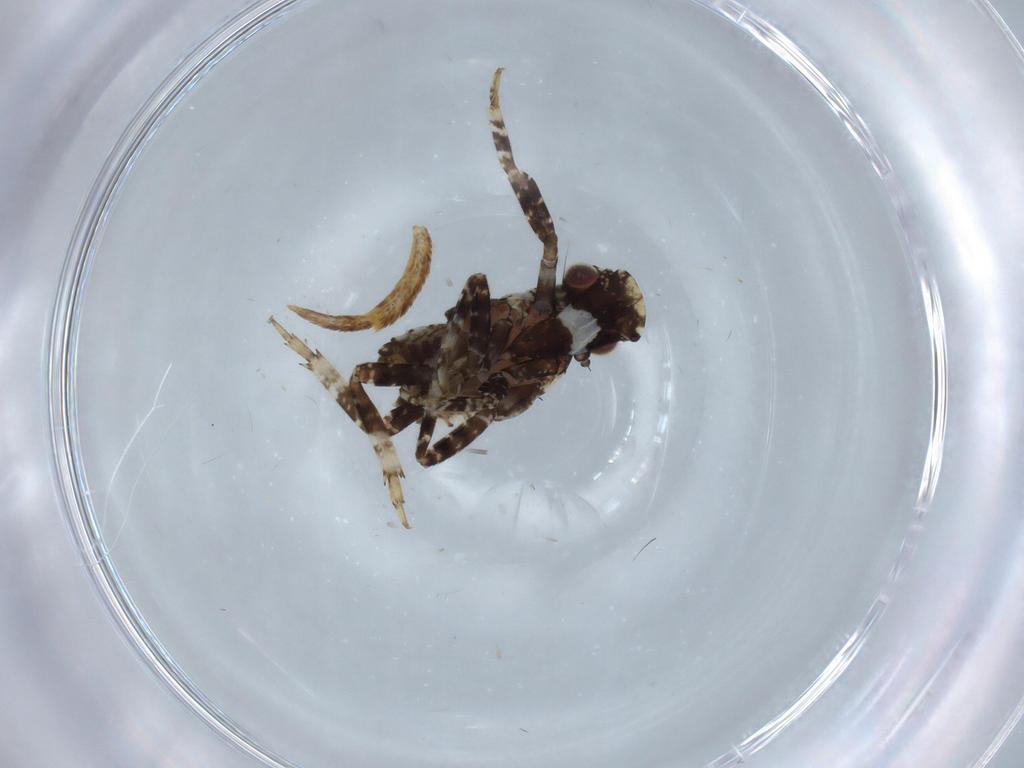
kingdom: Animalia
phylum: Arthropoda
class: Insecta
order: Hemiptera
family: Fulgoridae
